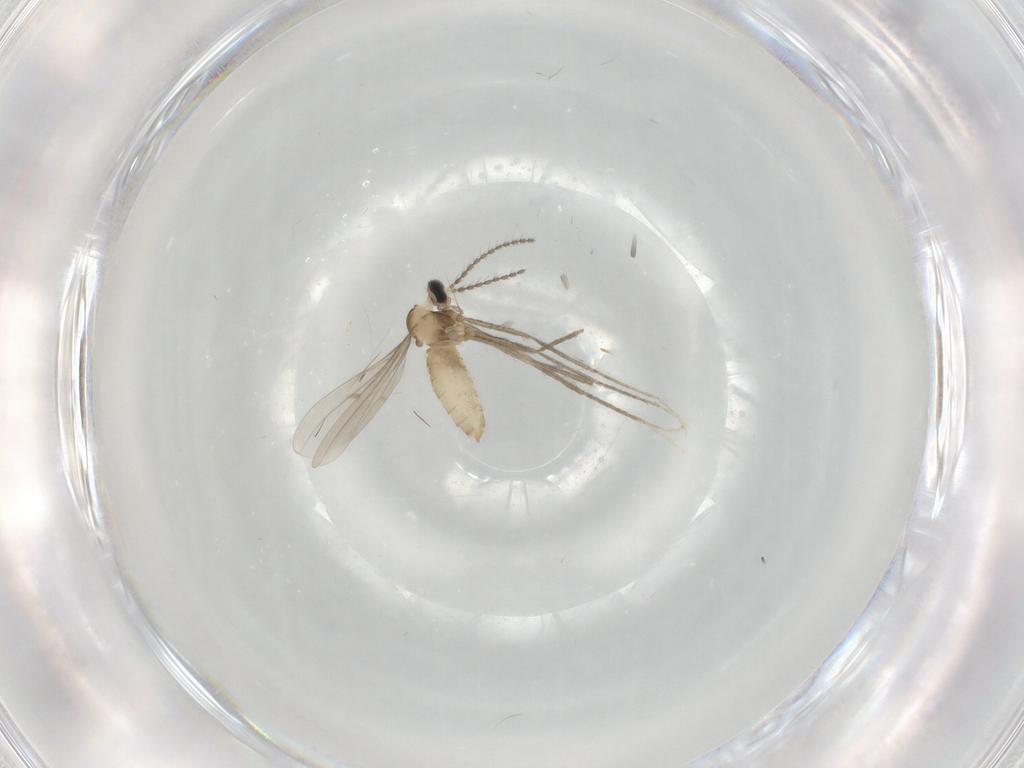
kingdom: Animalia
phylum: Arthropoda
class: Insecta
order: Diptera
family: Cecidomyiidae
